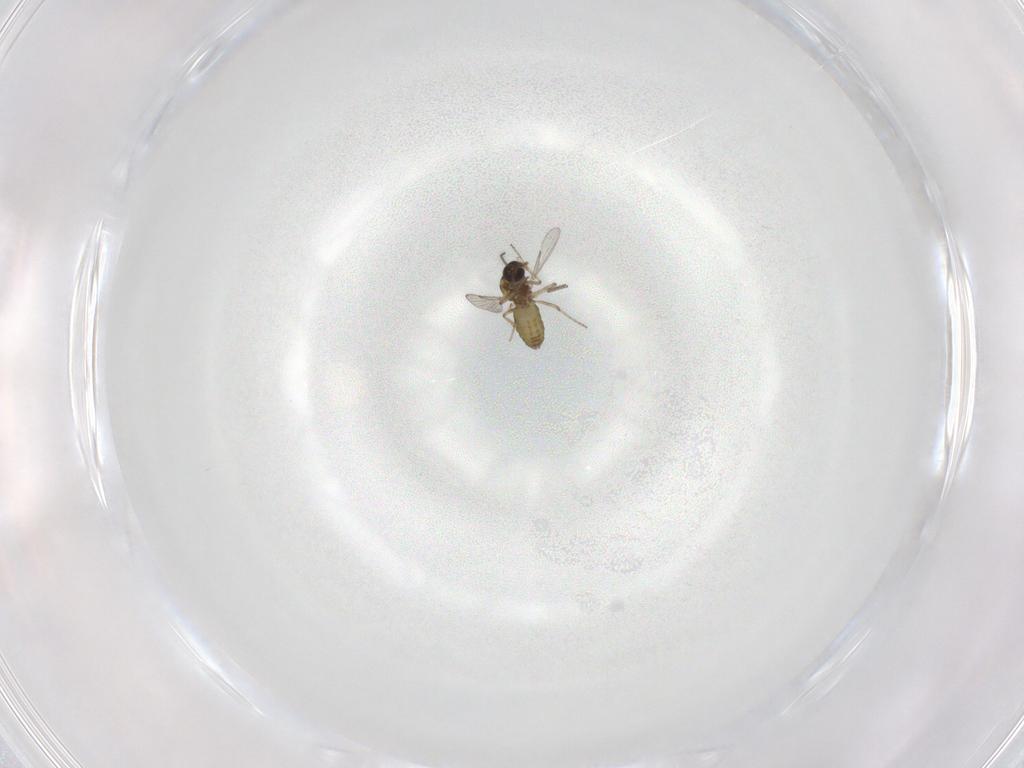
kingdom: Animalia
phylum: Arthropoda
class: Insecta
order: Diptera
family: Ceratopogonidae
